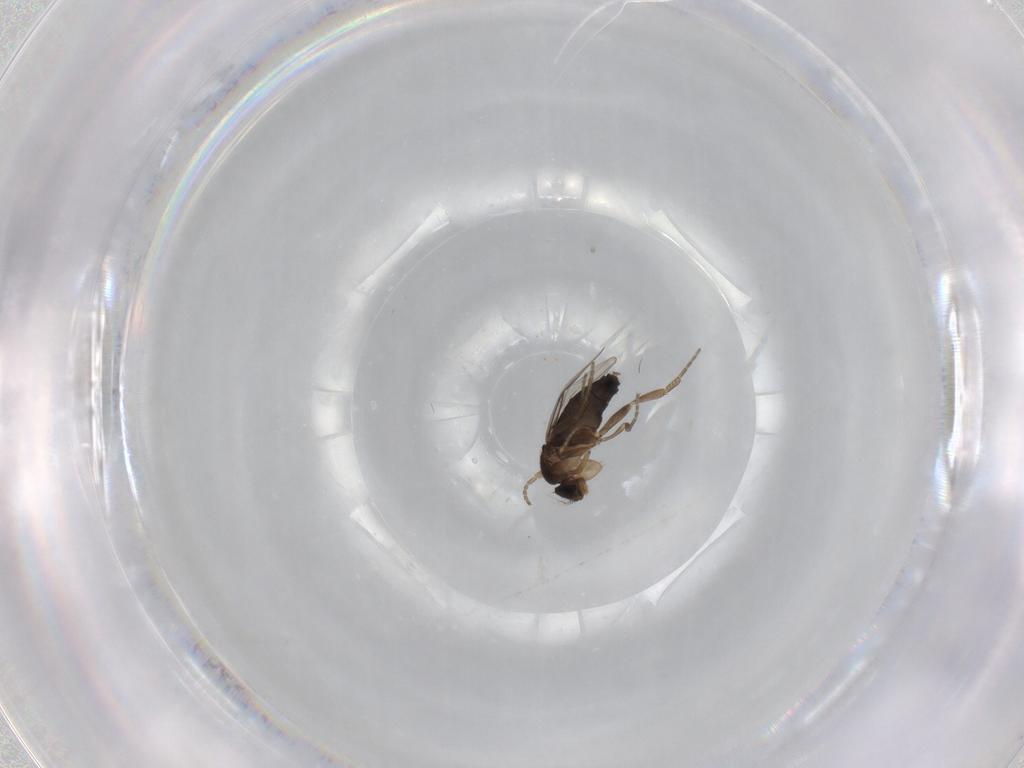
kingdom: Animalia
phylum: Arthropoda
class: Insecta
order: Diptera
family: Phoridae
